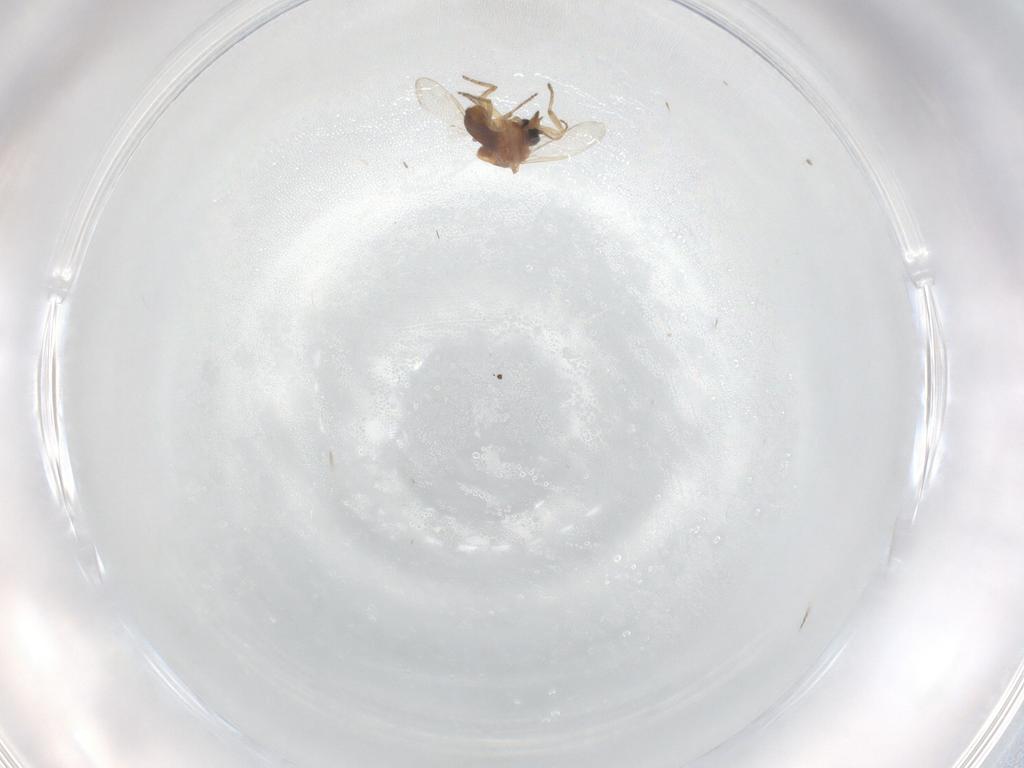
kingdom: Animalia
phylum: Arthropoda
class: Insecta
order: Diptera
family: Ceratopogonidae
